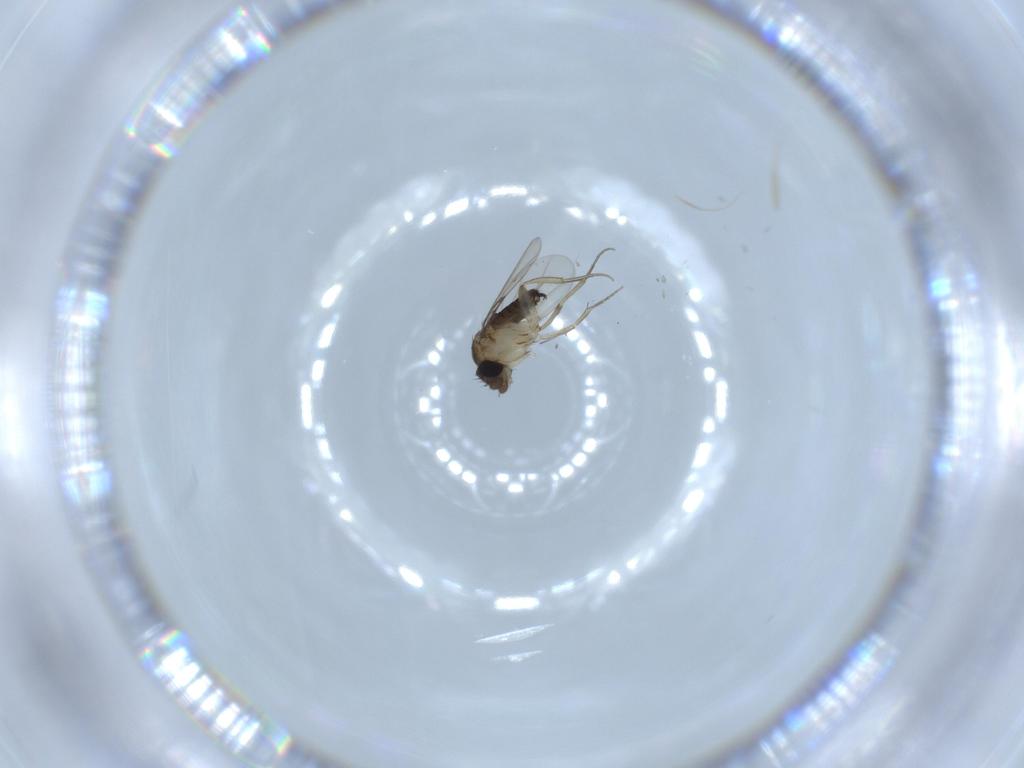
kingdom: Animalia
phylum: Arthropoda
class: Insecta
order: Diptera
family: Phoridae
